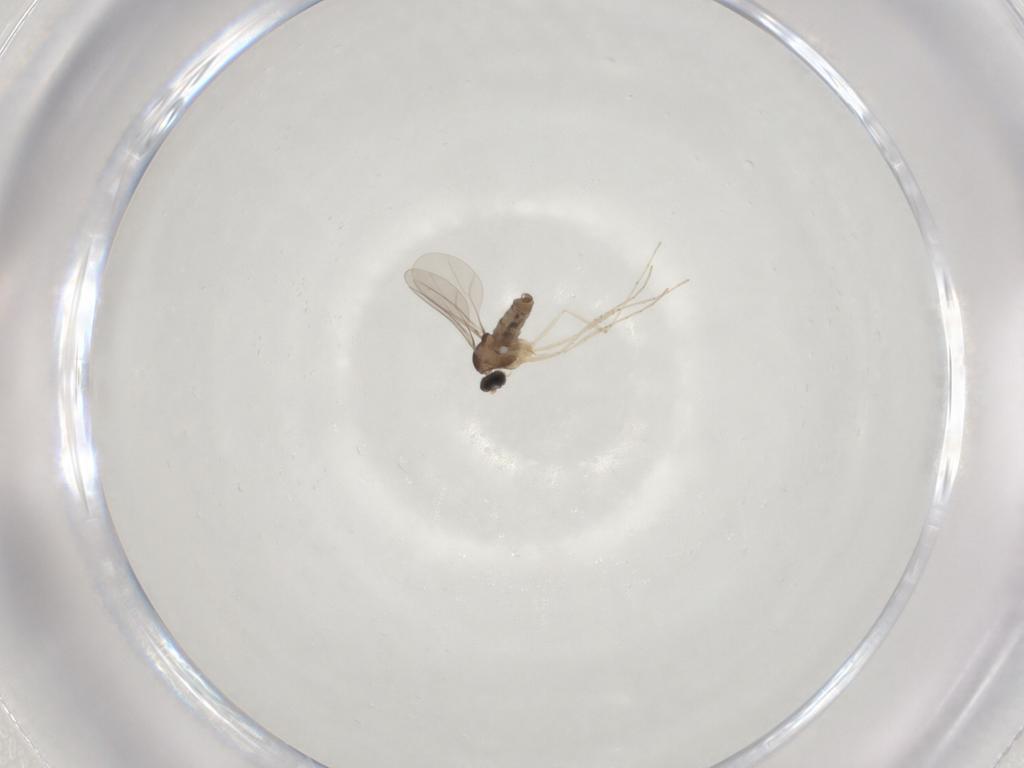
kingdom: Animalia
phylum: Arthropoda
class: Insecta
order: Diptera
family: Cecidomyiidae
